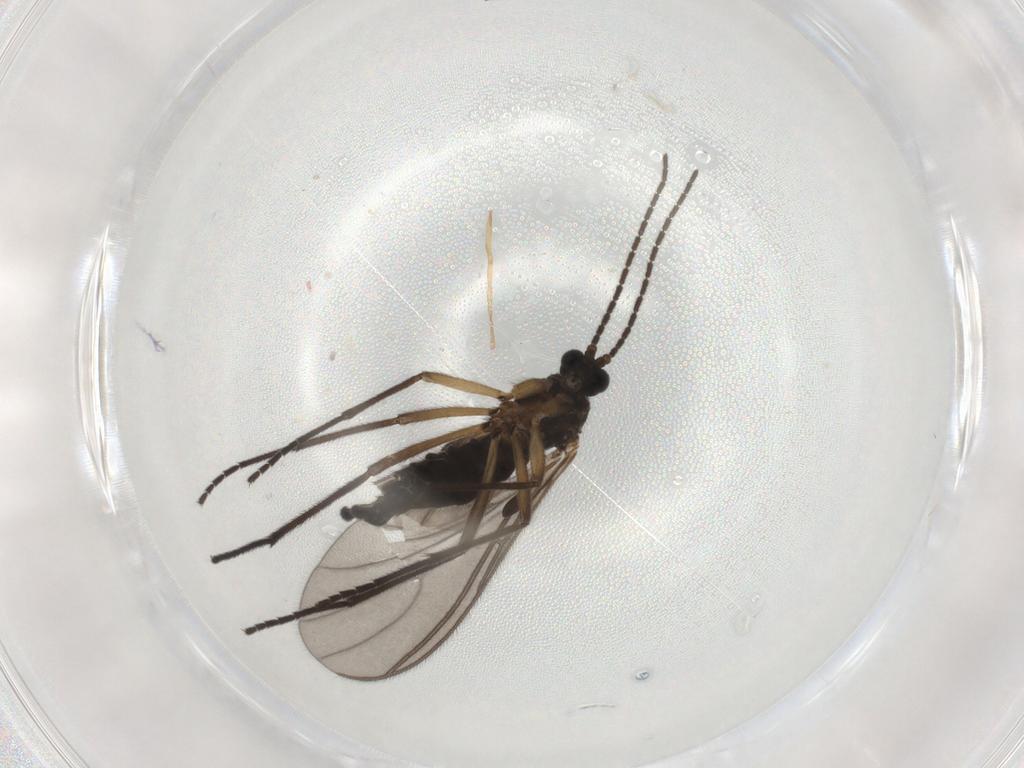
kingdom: Animalia
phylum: Arthropoda
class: Insecta
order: Diptera
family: Sciaridae
